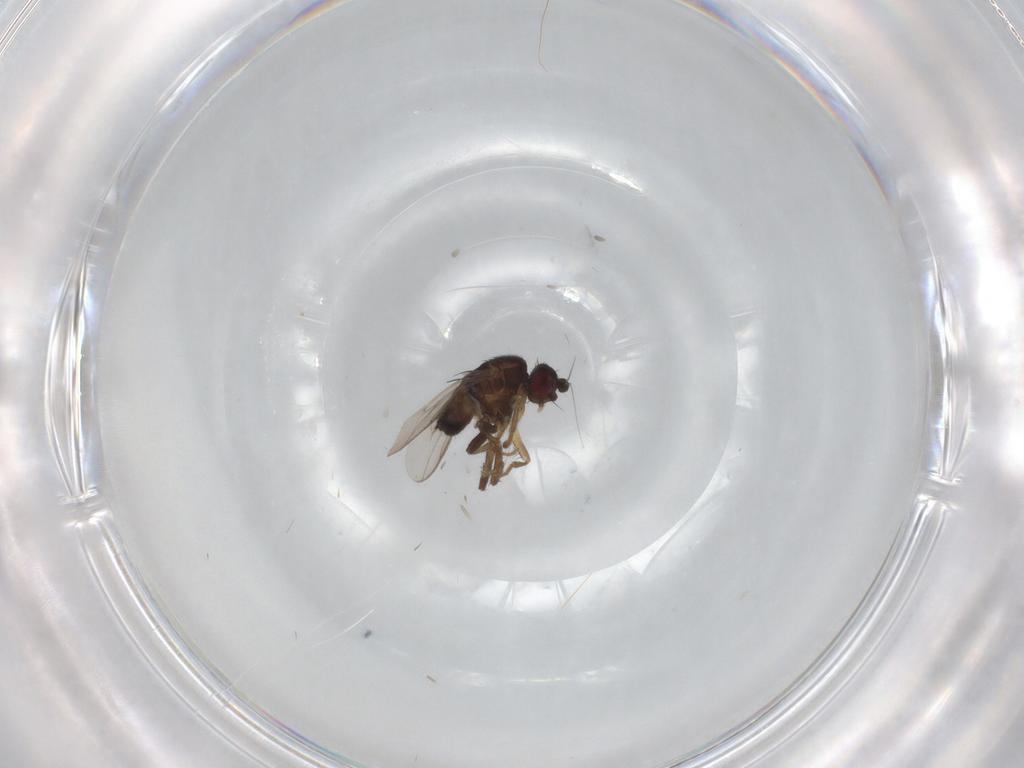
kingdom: Animalia
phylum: Arthropoda
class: Insecta
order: Diptera
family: Sphaeroceridae
